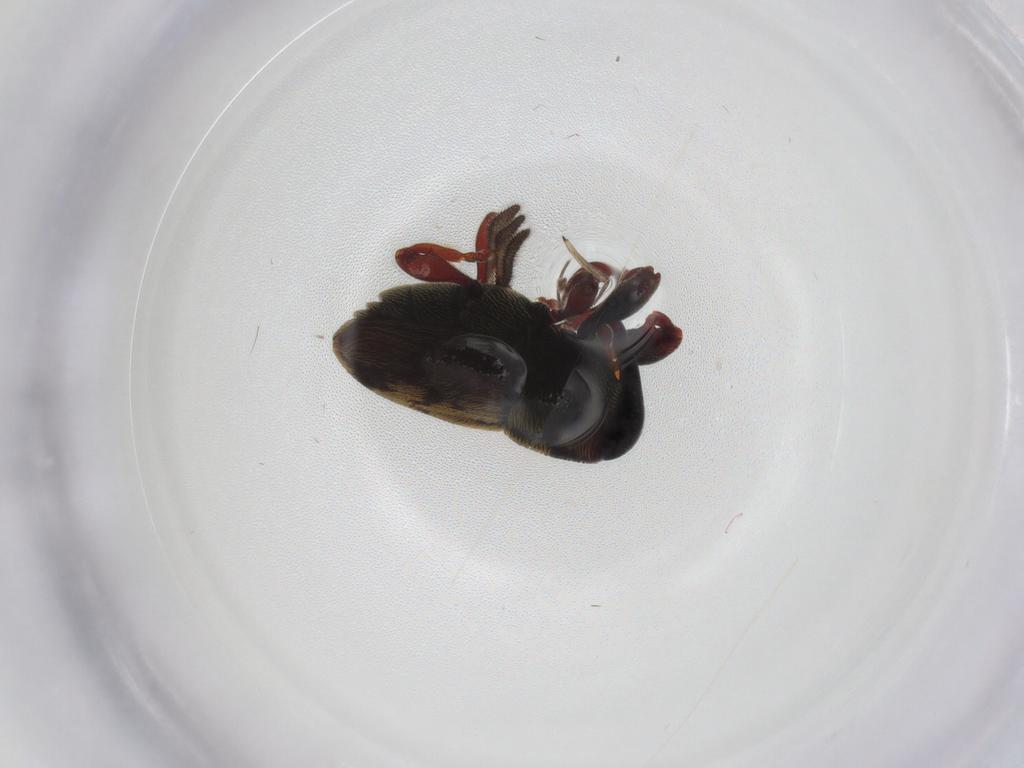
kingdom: Animalia
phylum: Arthropoda
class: Insecta
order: Coleoptera
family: Lampyridae
